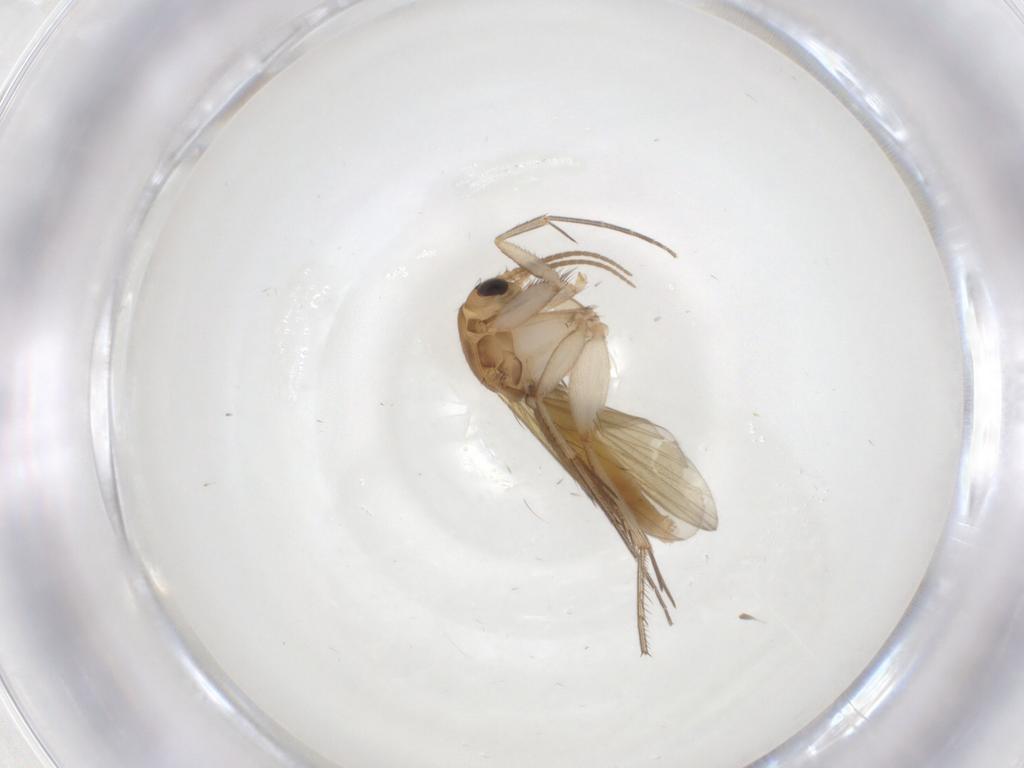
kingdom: Animalia
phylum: Arthropoda
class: Insecta
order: Diptera
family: Mycetophilidae
